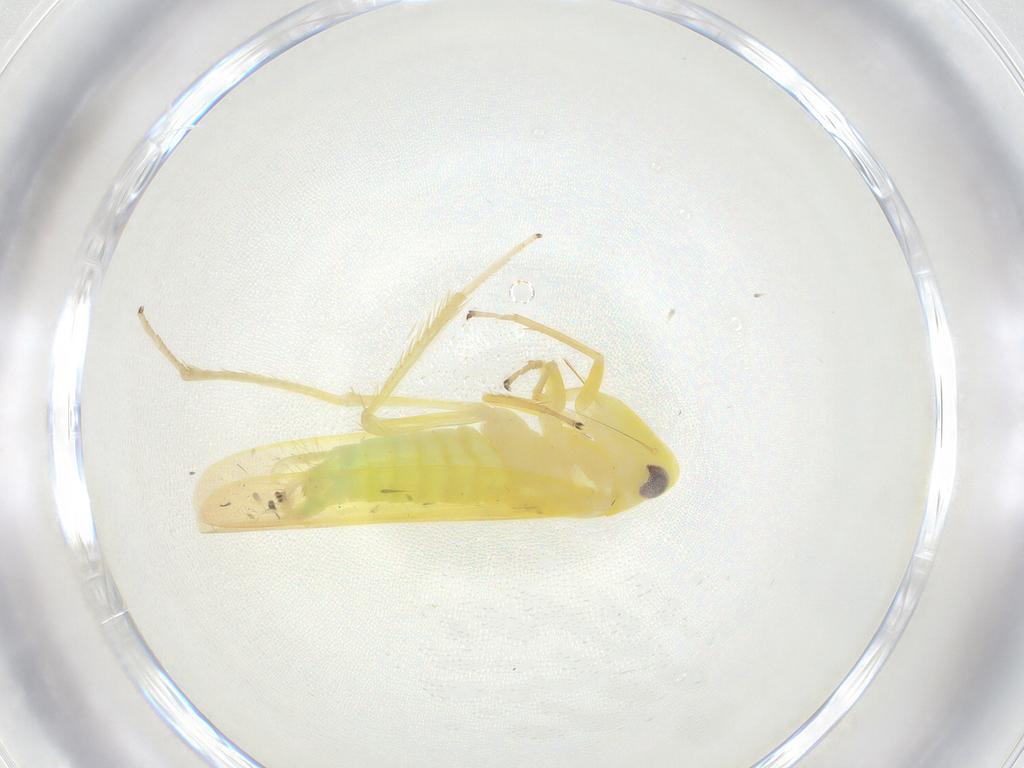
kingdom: Animalia
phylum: Arthropoda
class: Insecta
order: Hemiptera
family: Cicadellidae
